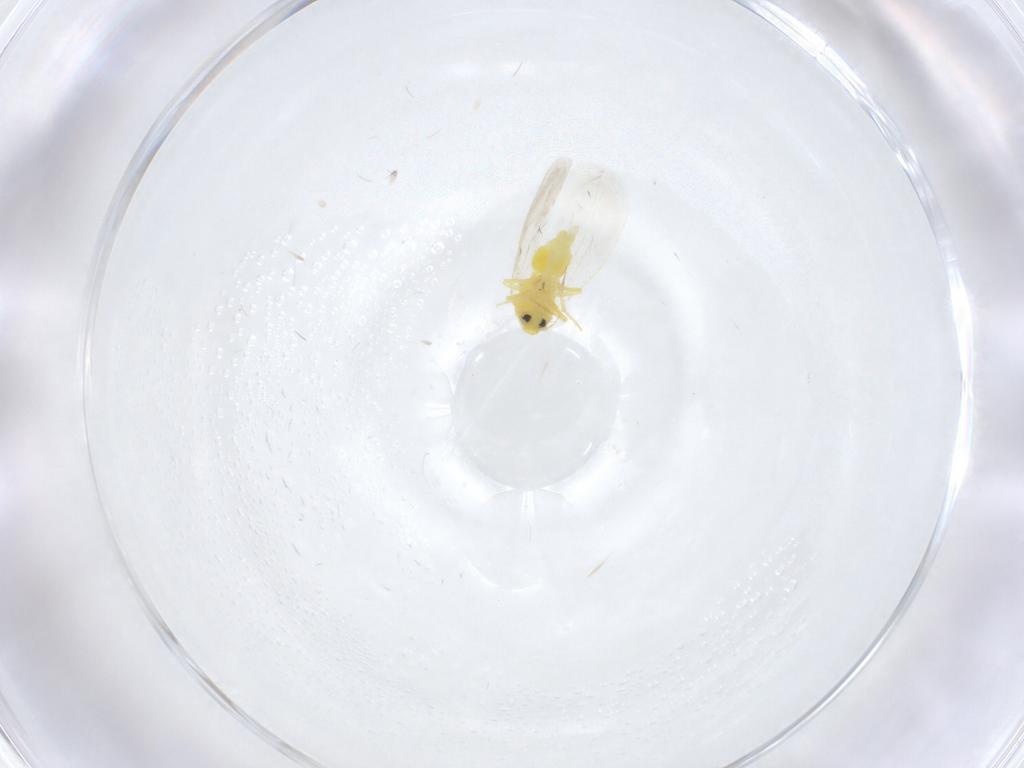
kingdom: Animalia
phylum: Arthropoda
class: Insecta
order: Hemiptera
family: Aleyrodidae
